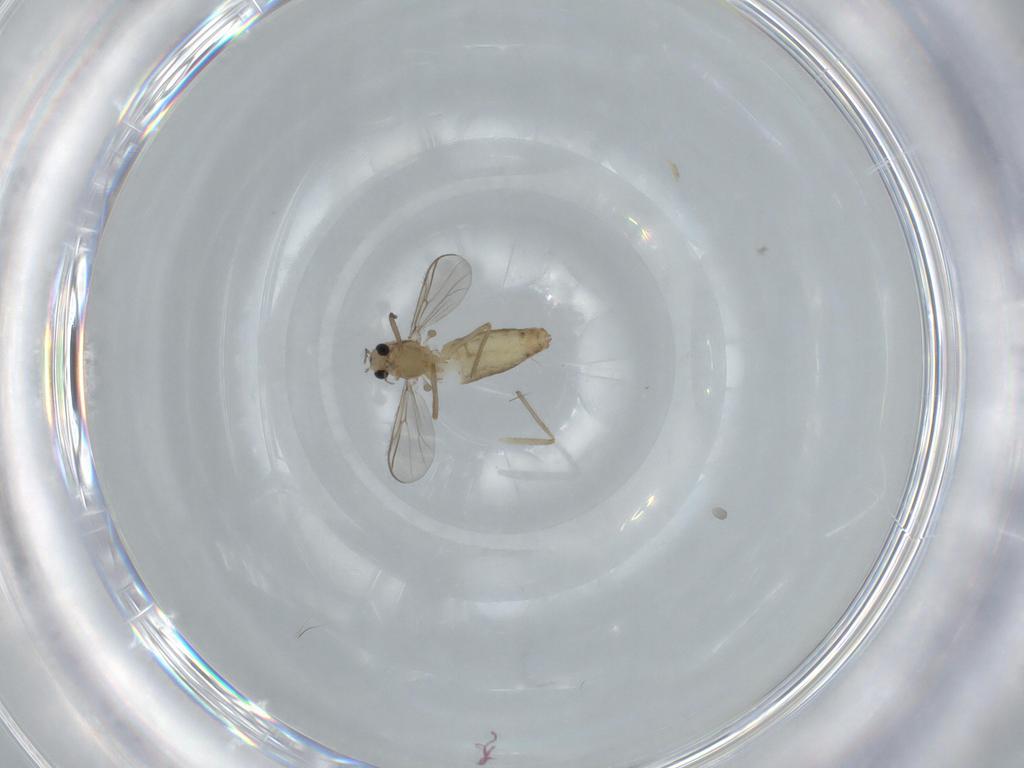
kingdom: Animalia
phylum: Arthropoda
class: Insecta
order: Diptera
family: Chironomidae
